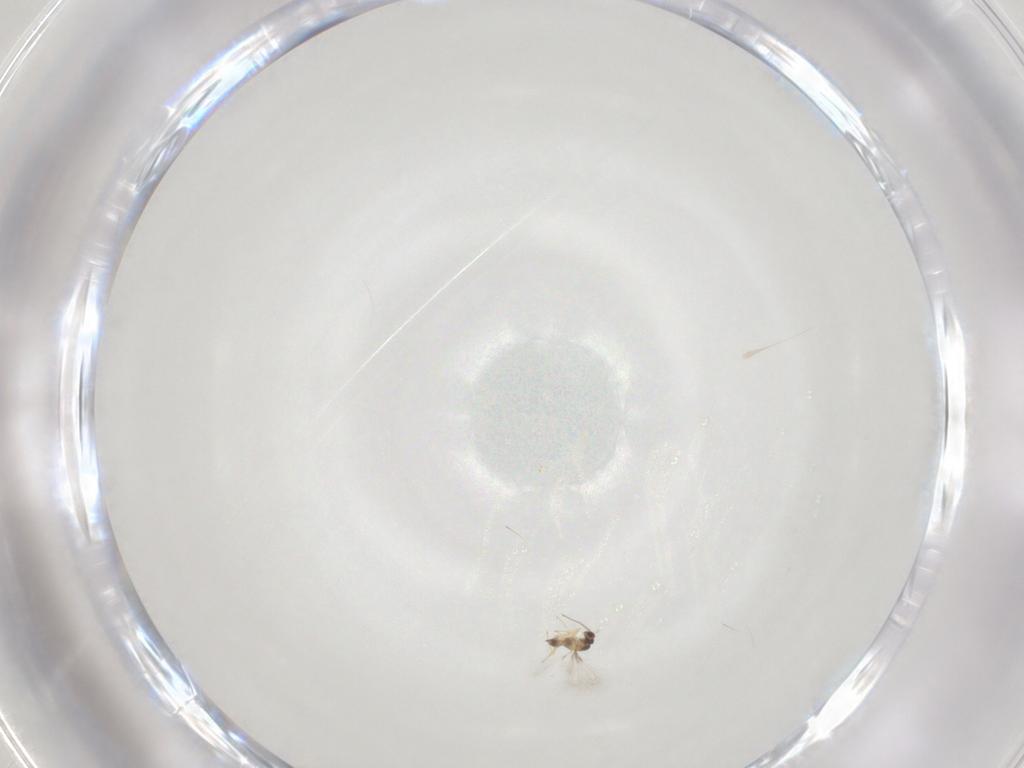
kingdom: Animalia
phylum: Arthropoda
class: Insecta
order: Hymenoptera
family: Mymaridae
